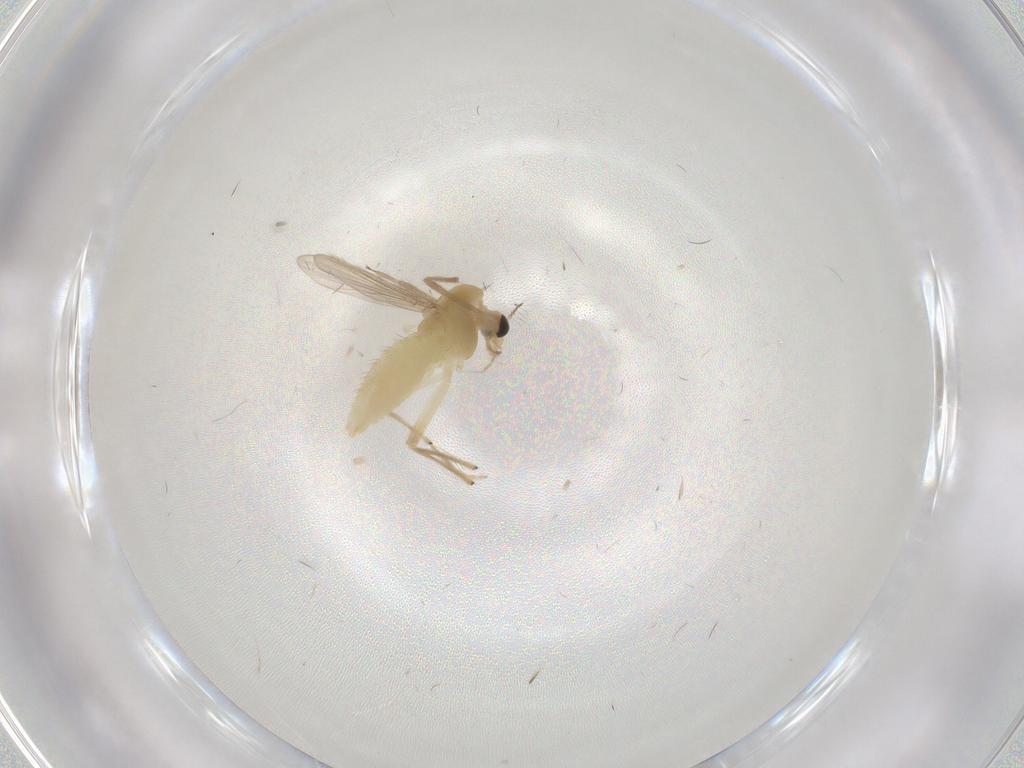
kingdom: Animalia
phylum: Arthropoda
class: Insecta
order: Diptera
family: Chironomidae
